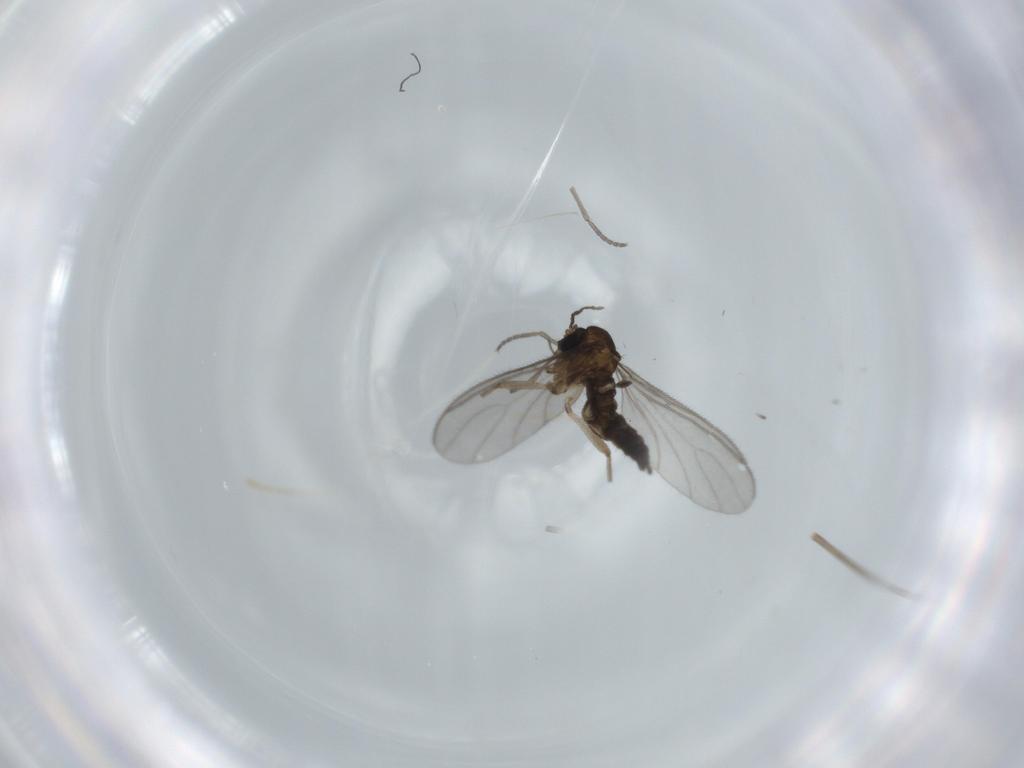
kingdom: Animalia
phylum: Arthropoda
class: Insecta
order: Diptera
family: Sciaridae
